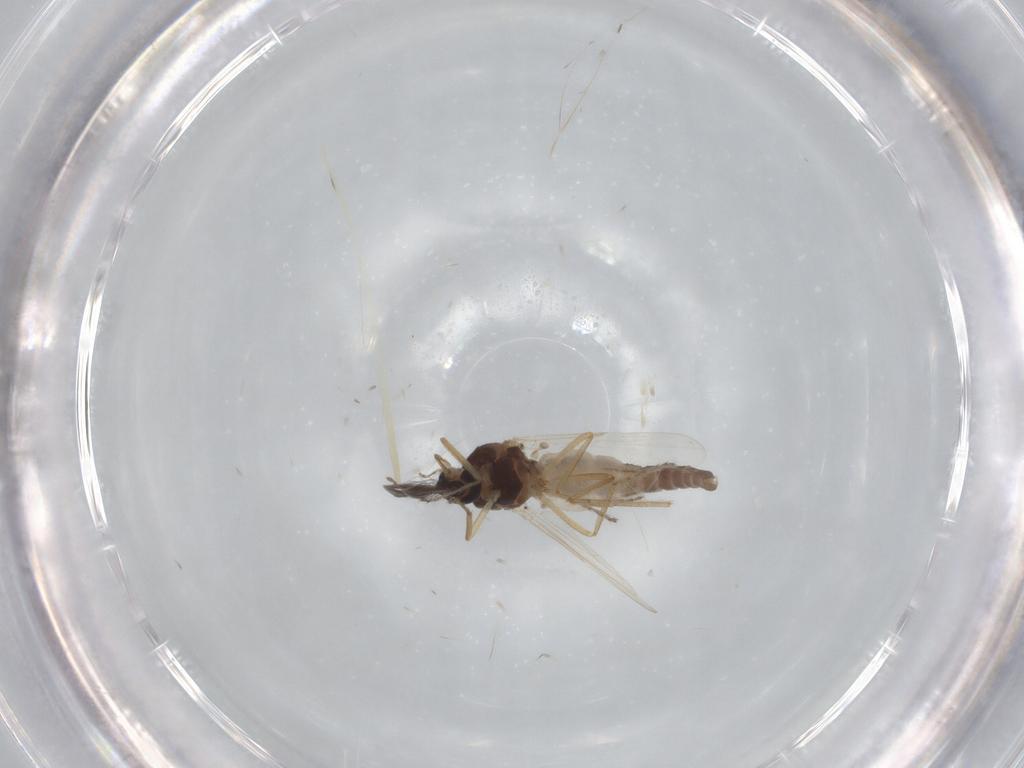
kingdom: Animalia
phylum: Arthropoda
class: Insecta
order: Diptera
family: Ceratopogonidae
